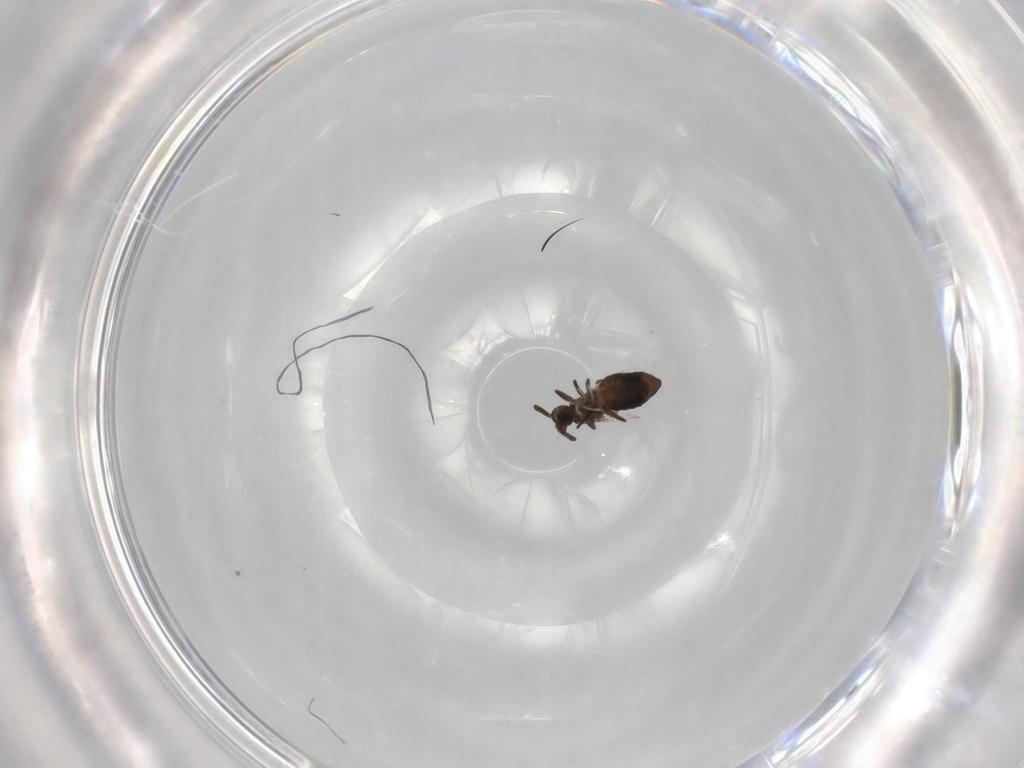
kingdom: Animalia
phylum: Arthropoda
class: Insecta
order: Diptera
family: Scatopsidae
